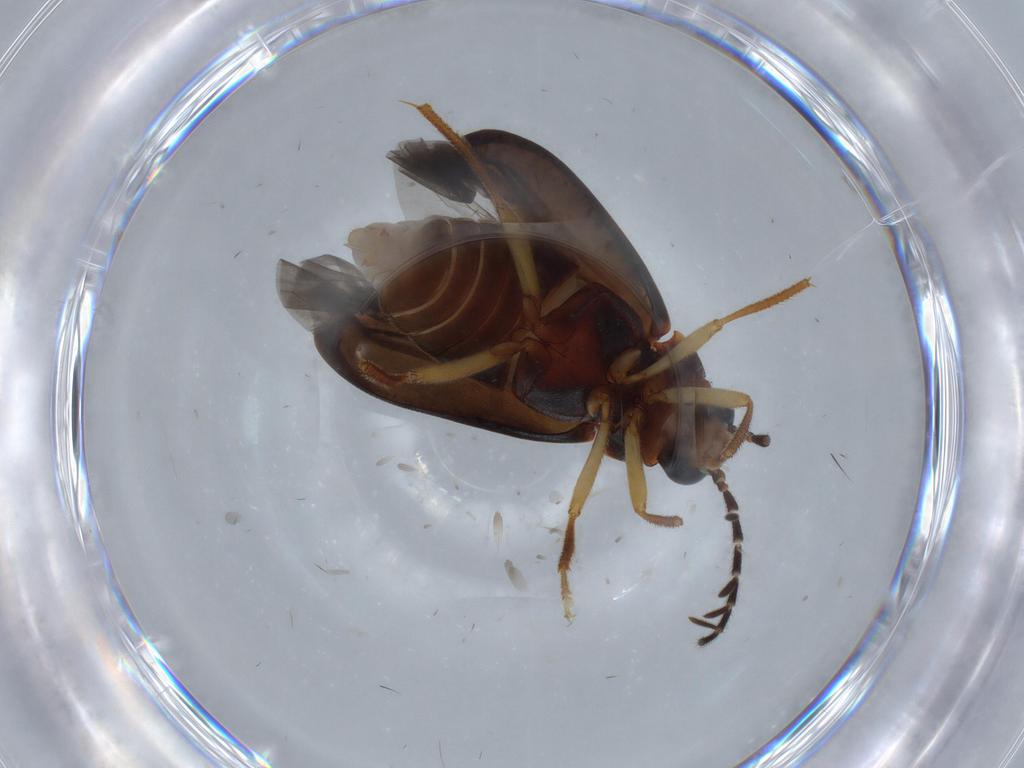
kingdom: Animalia
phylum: Arthropoda
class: Insecta
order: Coleoptera
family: Ptilodactylidae
